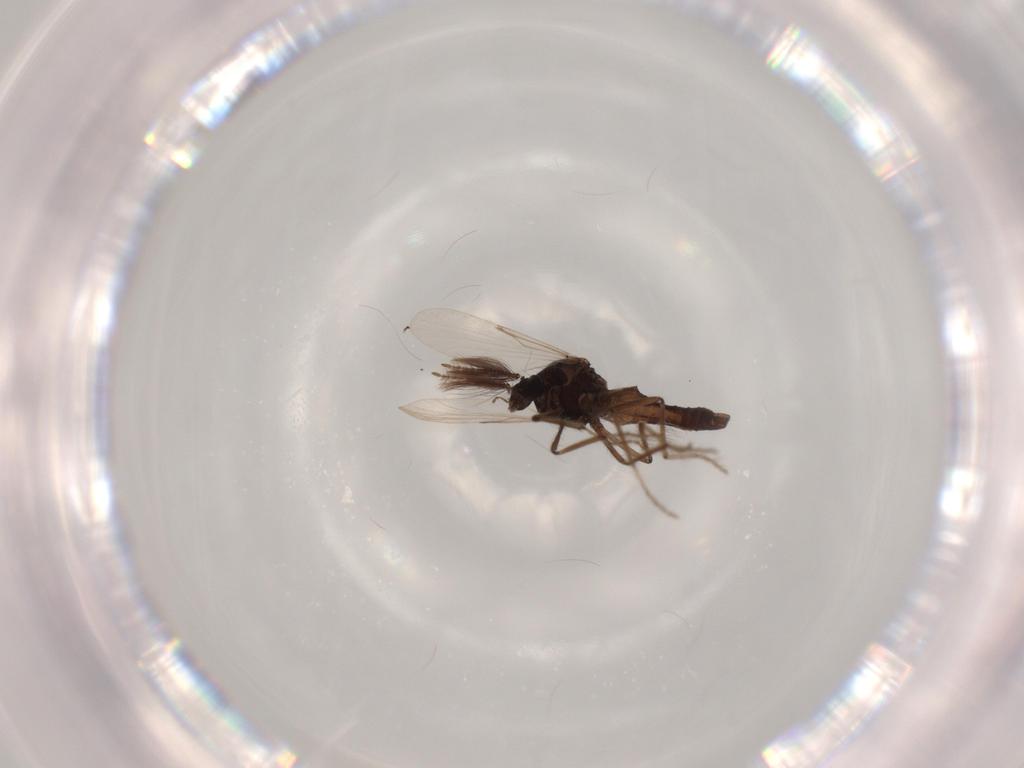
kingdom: Animalia
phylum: Arthropoda
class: Insecta
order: Diptera
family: Chironomidae
